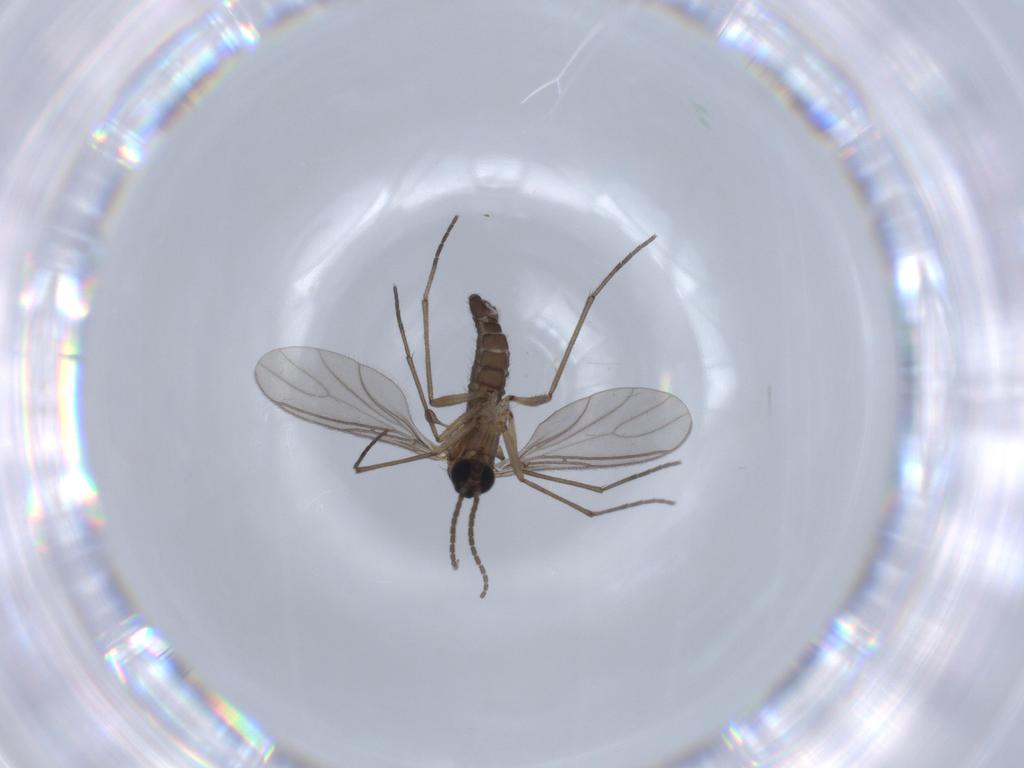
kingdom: Animalia
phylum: Arthropoda
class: Insecta
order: Diptera
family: Sciaridae
